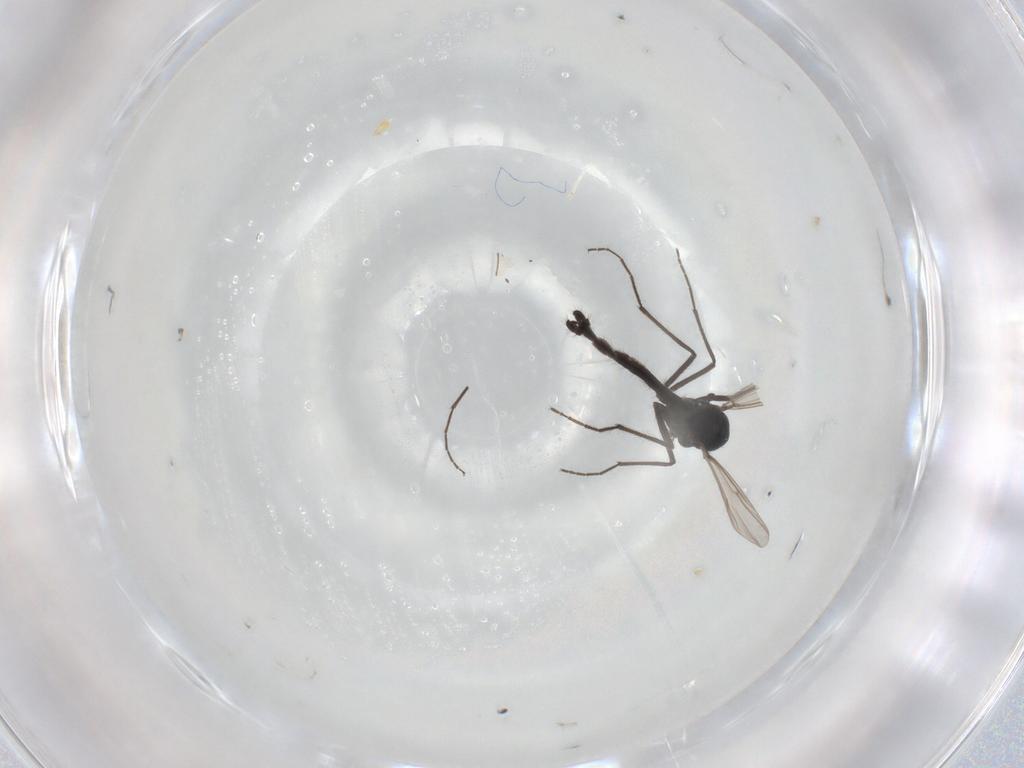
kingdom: Animalia
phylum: Arthropoda
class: Insecta
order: Diptera
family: Chironomidae
